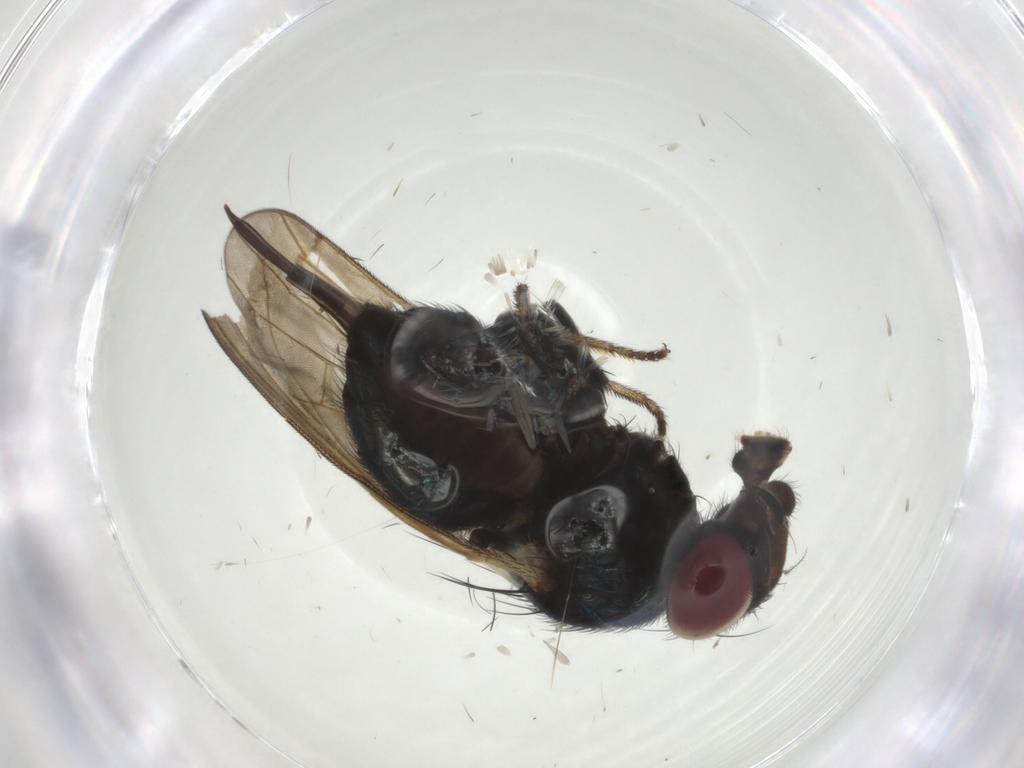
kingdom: Animalia
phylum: Arthropoda
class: Insecta
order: Diptera
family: Lonchaeidae
